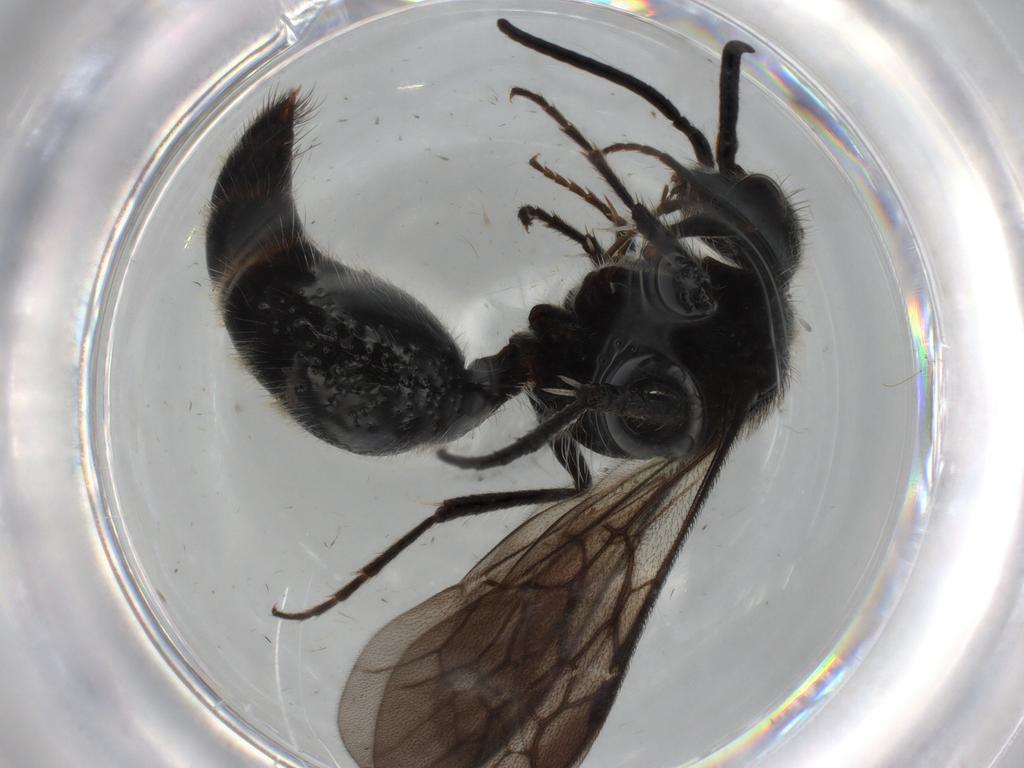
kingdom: Animalia
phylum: Arthropoda
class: Insecta
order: Hymenoptera
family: Mutillidae
